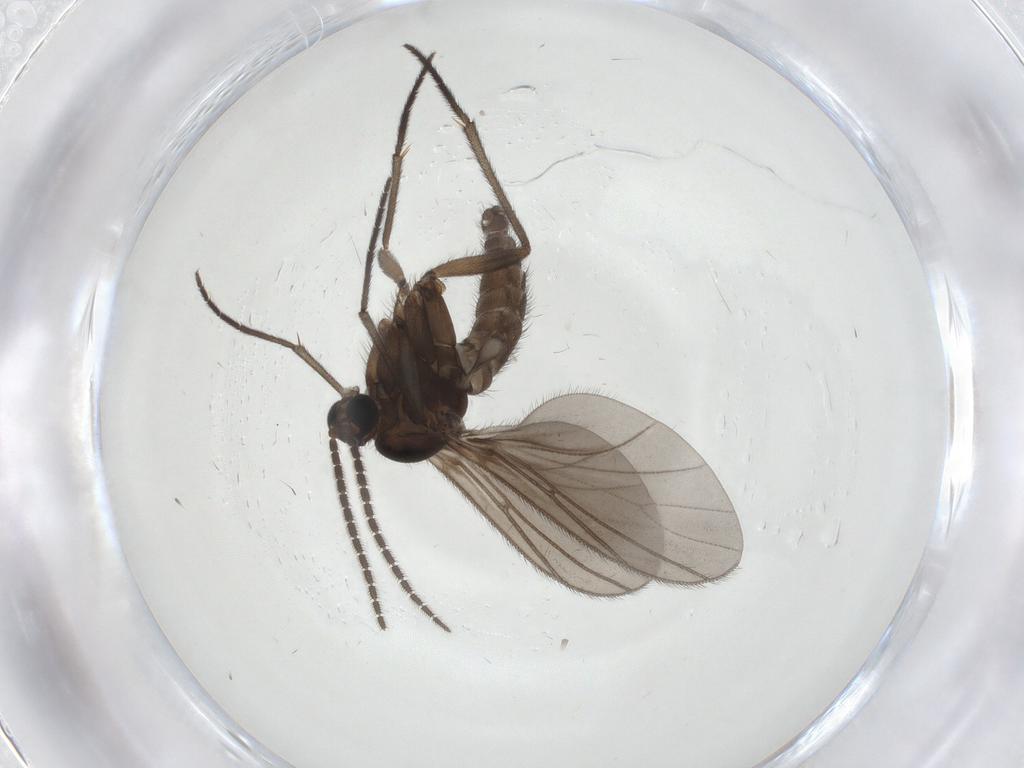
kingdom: Animalia
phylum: Arthropoda
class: Insecta
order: Diptera
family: Sciaridae
